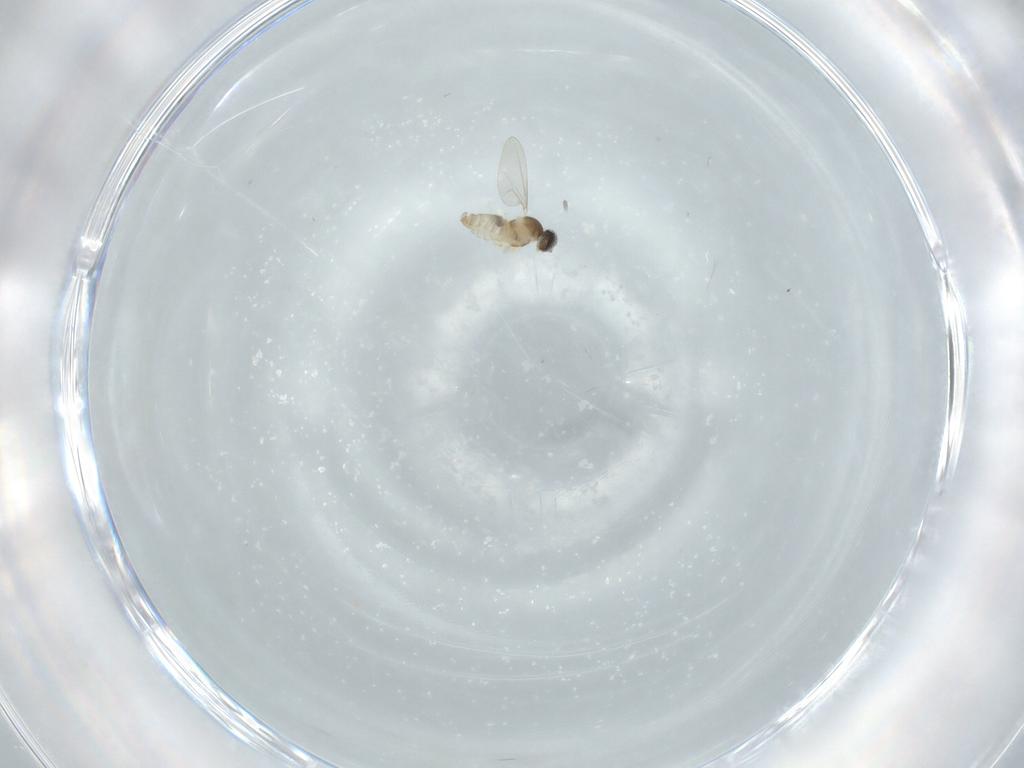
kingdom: Animalia
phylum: Arthropoda
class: Insecta
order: Diptera
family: Cecidomyiidae
